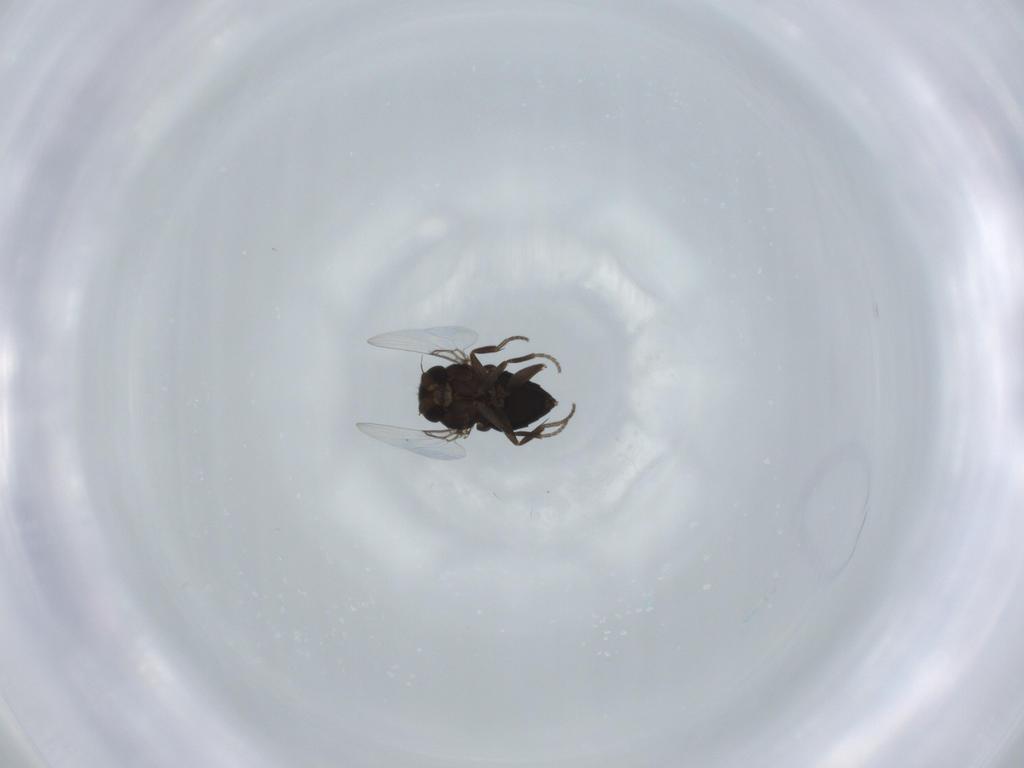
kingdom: Animalia
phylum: Arthropoda
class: Insecta
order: Diptera
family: Phoridae
